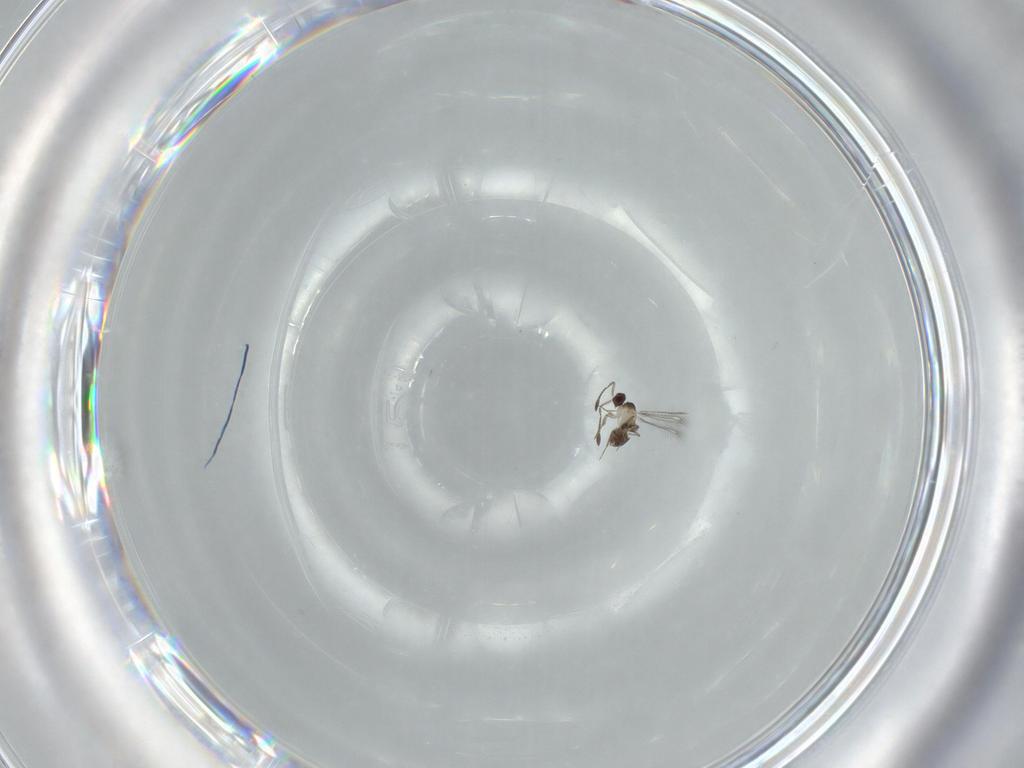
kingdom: Animalia
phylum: Arthropoda
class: Insecta
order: Hymenoptera
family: Mymaridae
